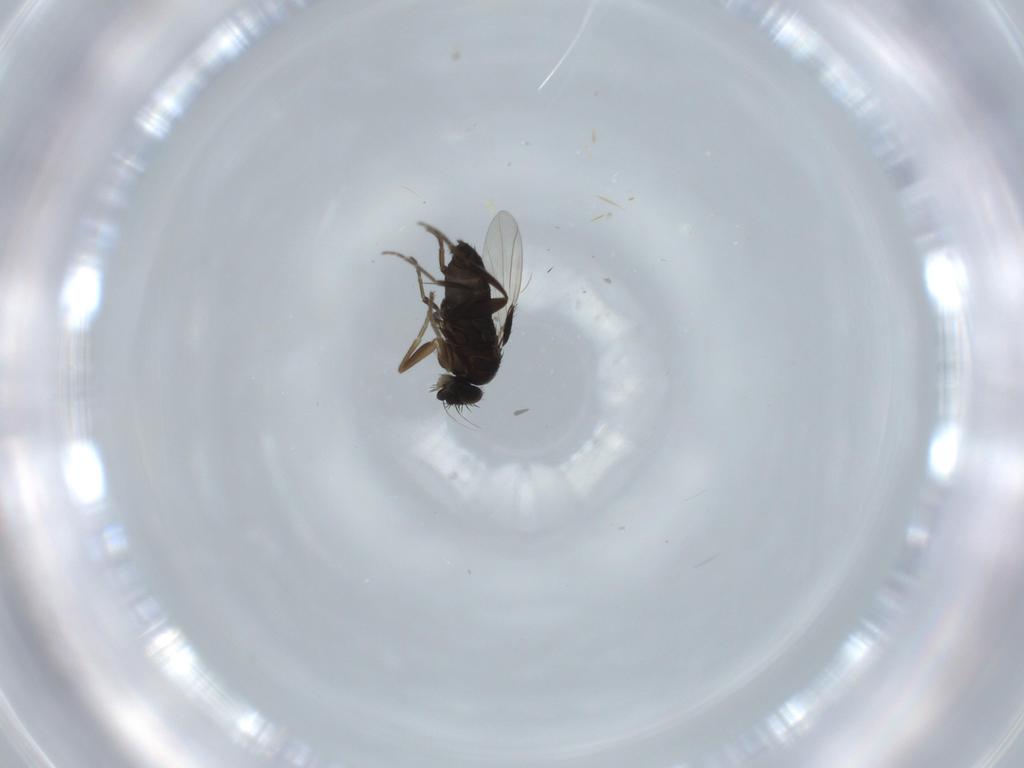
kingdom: Animalia
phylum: Arthropoda
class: Insecta
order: Diptera
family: Phoridae
